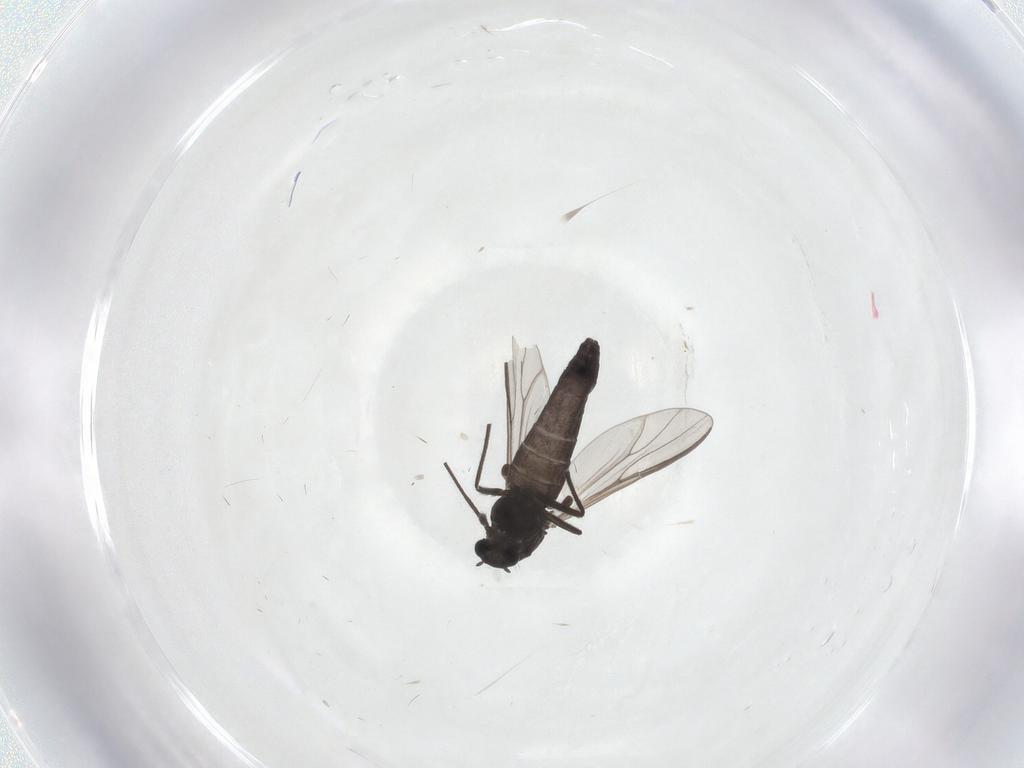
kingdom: Animalia
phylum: Arthropoda
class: Insecta
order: Diptera
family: Chironomidae
